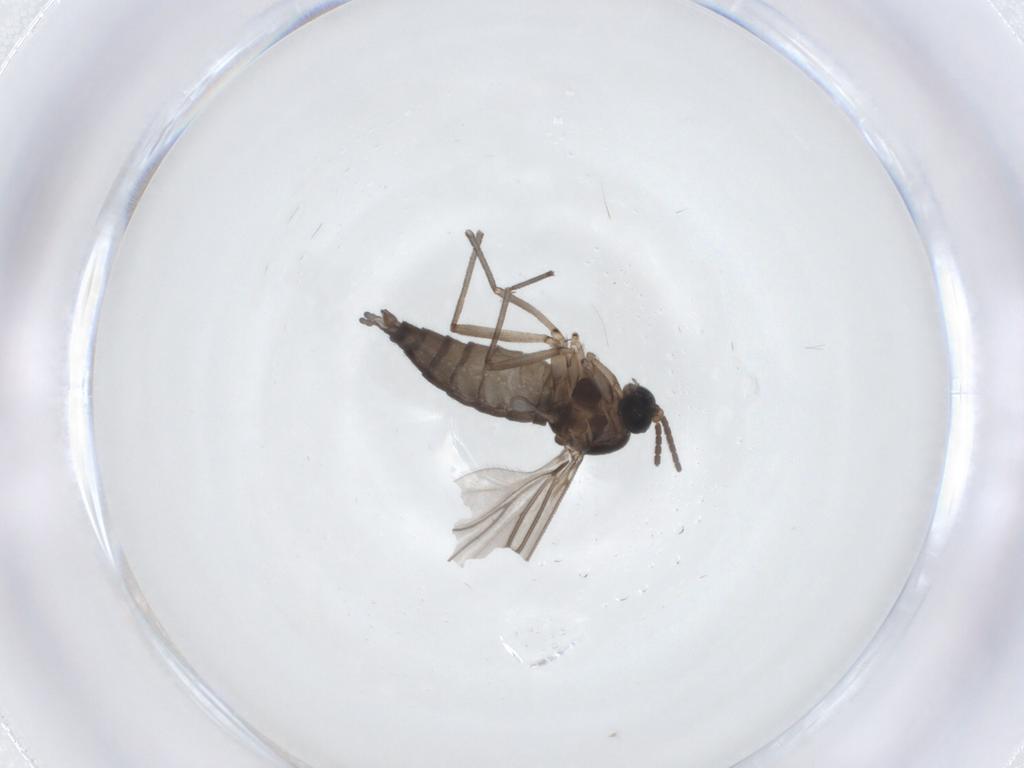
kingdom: Animalia
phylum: Arthropoda
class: Insecta
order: Diptera
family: Sciaridae
